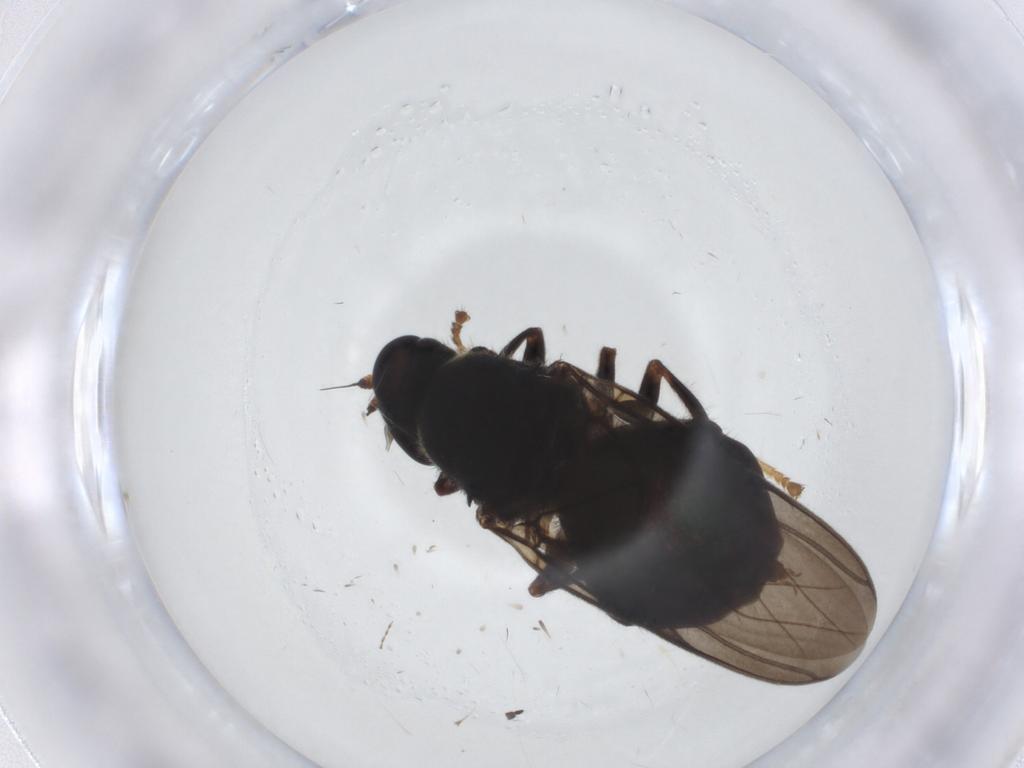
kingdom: Animalia
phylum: Arthropoda
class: Insecta
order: Diptera
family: Stratiomyidae
